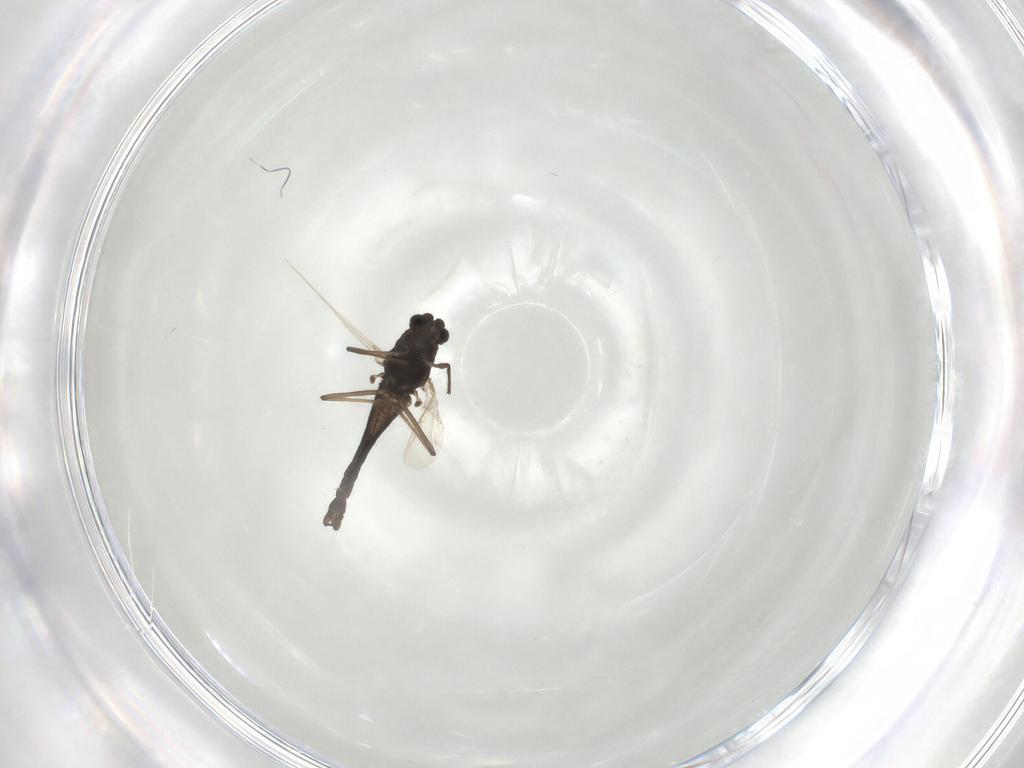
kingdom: Animalia
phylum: Arthropoda
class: Insecta
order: Diptera
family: Chironomidae
